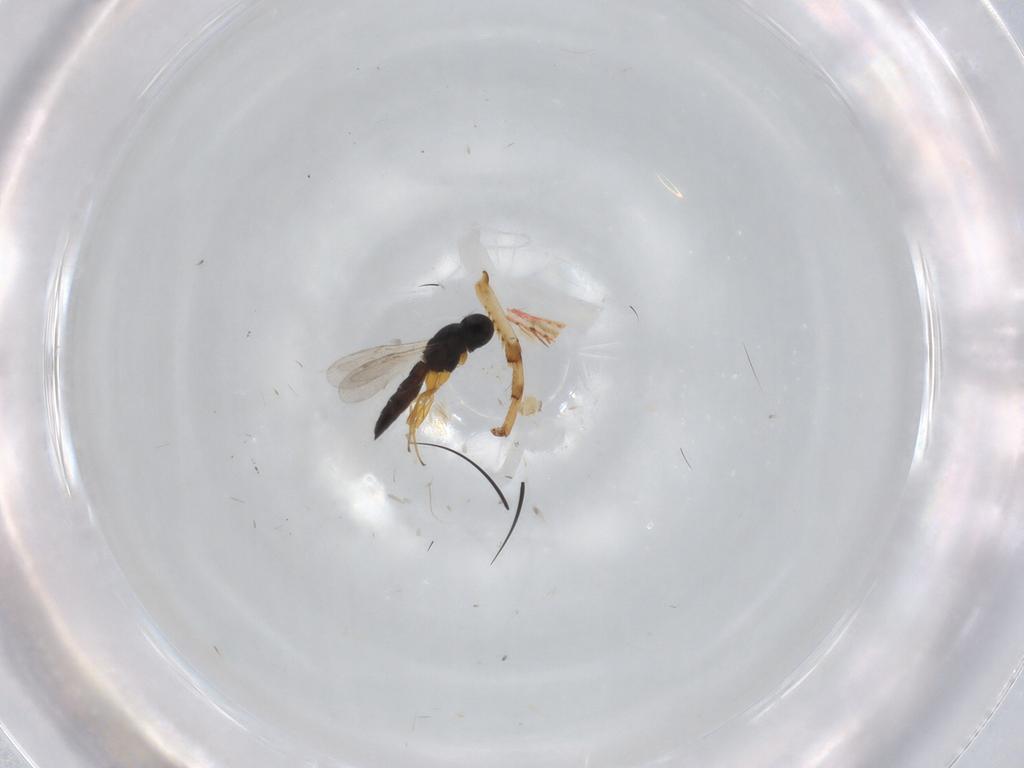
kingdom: Animalia
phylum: Arthropoda
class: Insecta
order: Hymenoptera
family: Scelionidae
